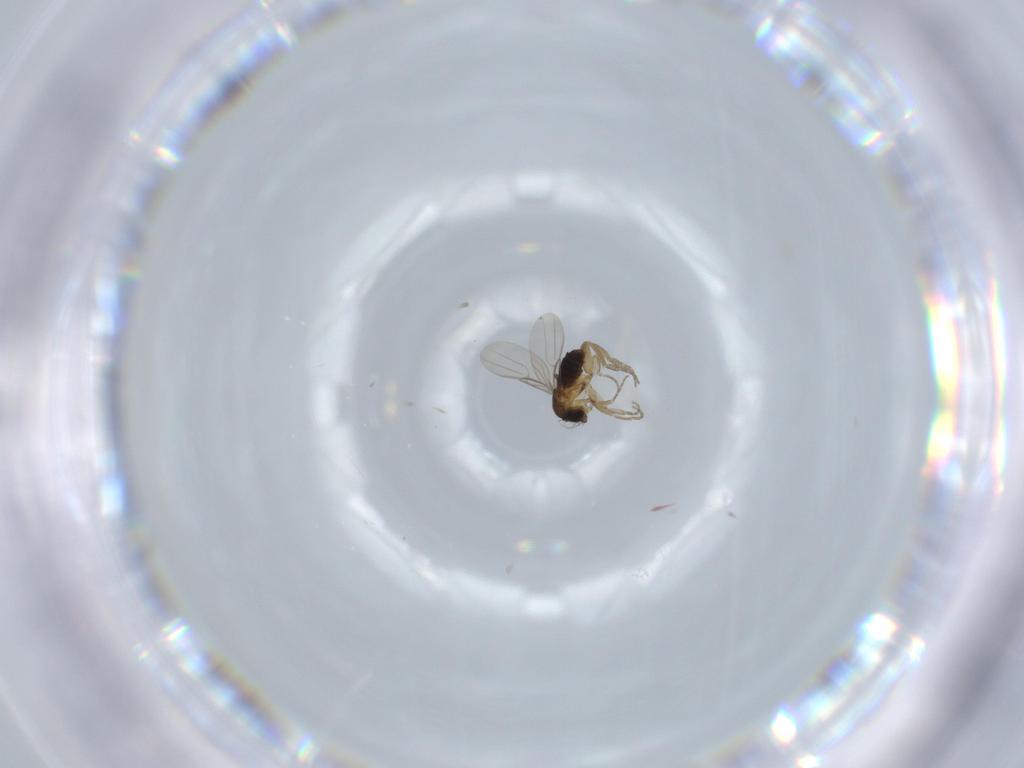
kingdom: Animalia
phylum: Arthropoda
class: Insecta
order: Diptera
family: Phoridae
